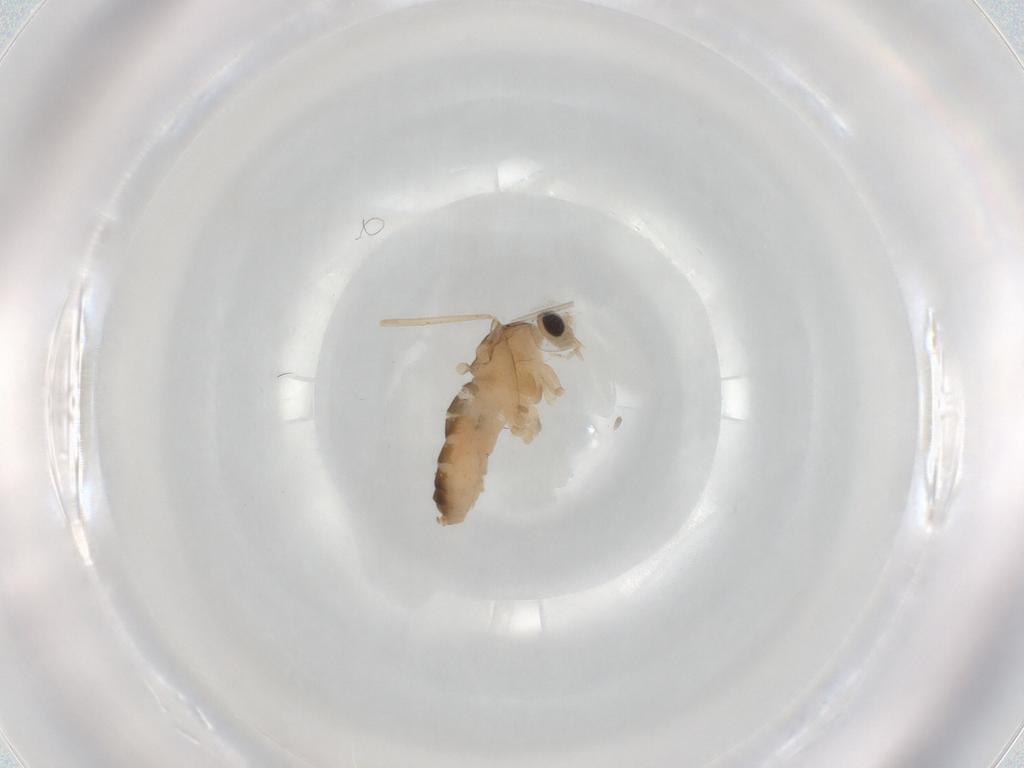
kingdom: Animalia
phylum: Arthropoda
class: Insecta
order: Diptera
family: Cecidomyiidae
